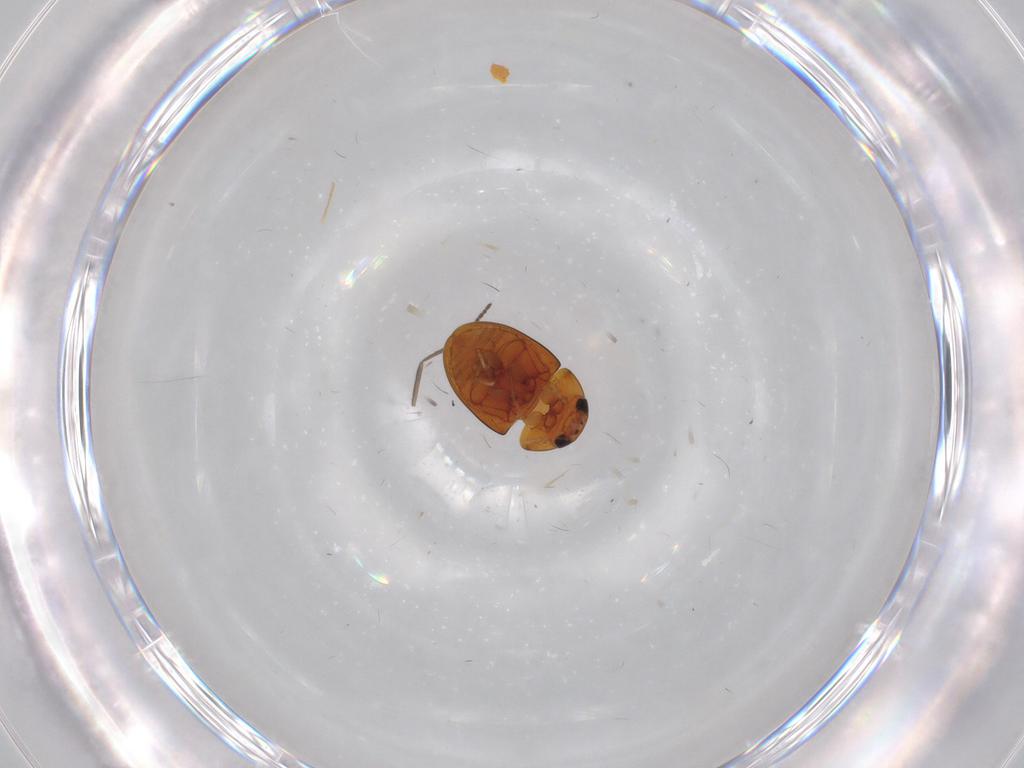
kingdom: Animalia
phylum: Arthropoda
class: Insecta
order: Coleoptera
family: Phalacridae
